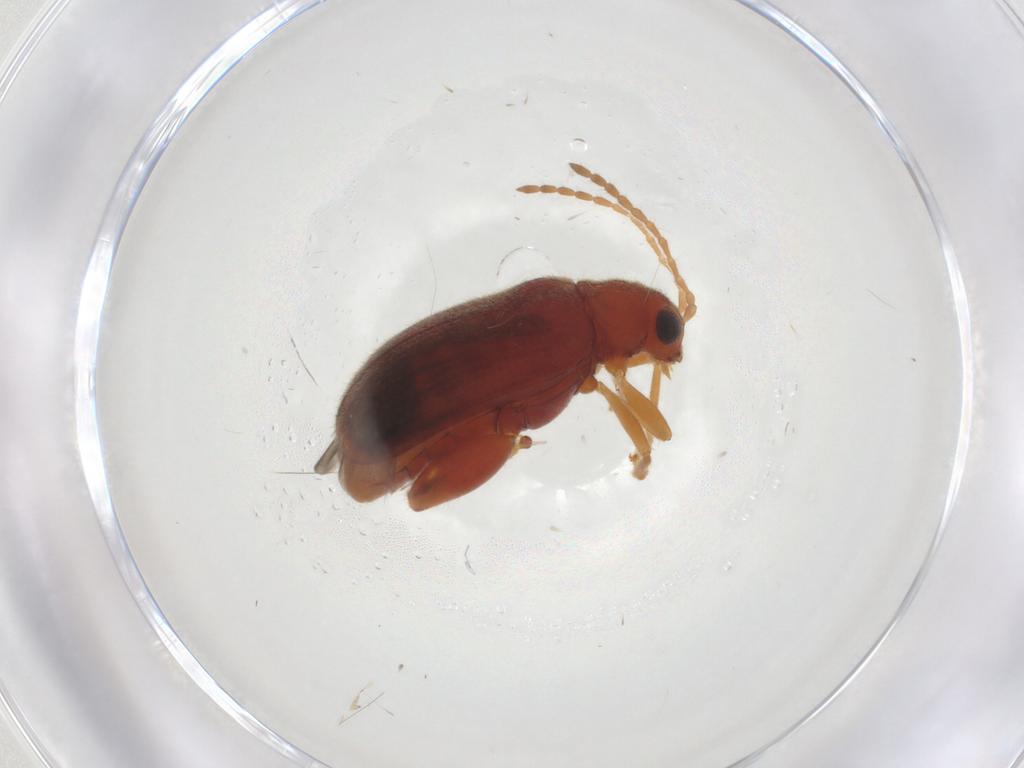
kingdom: Animalia
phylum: Arthropoda
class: Insecta
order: Coleoptera
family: Chrysomelidae
